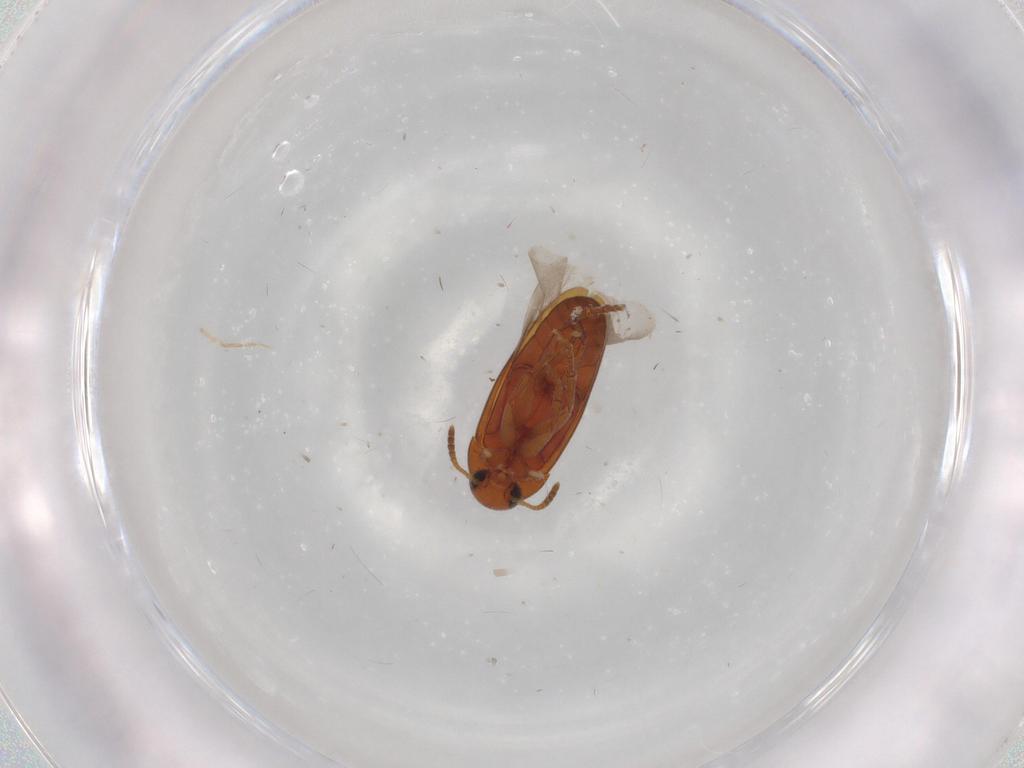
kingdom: Animalia
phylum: Arthropoda
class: Insecta
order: Coleoptera
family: Scraptiidae
